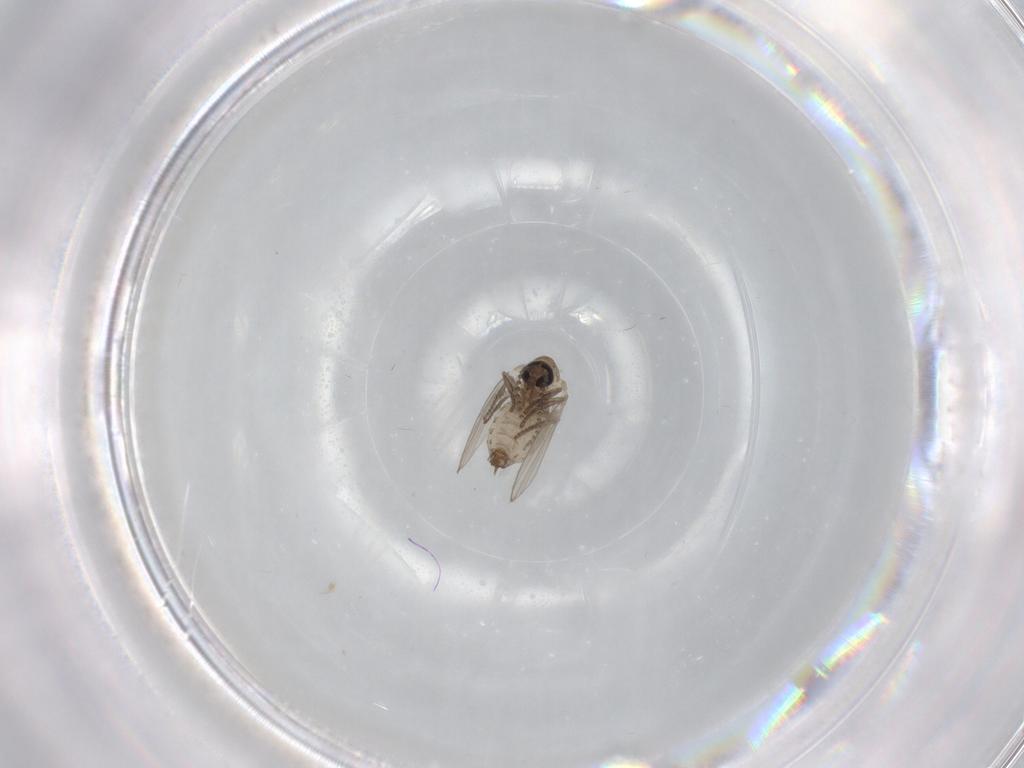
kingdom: Animalia
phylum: Arthropoda
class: Insecta
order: Diptera
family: Psychodidae
